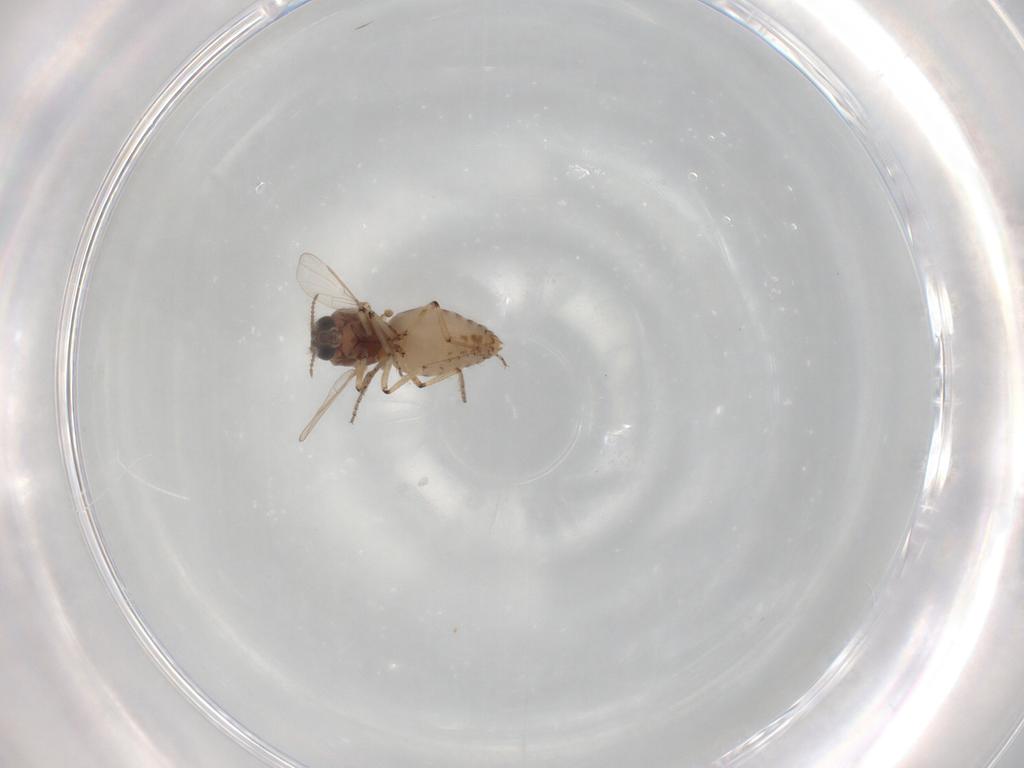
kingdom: Animalia
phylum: Arthropoda
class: Insecta
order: Diptera
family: Ceratopogonidae
